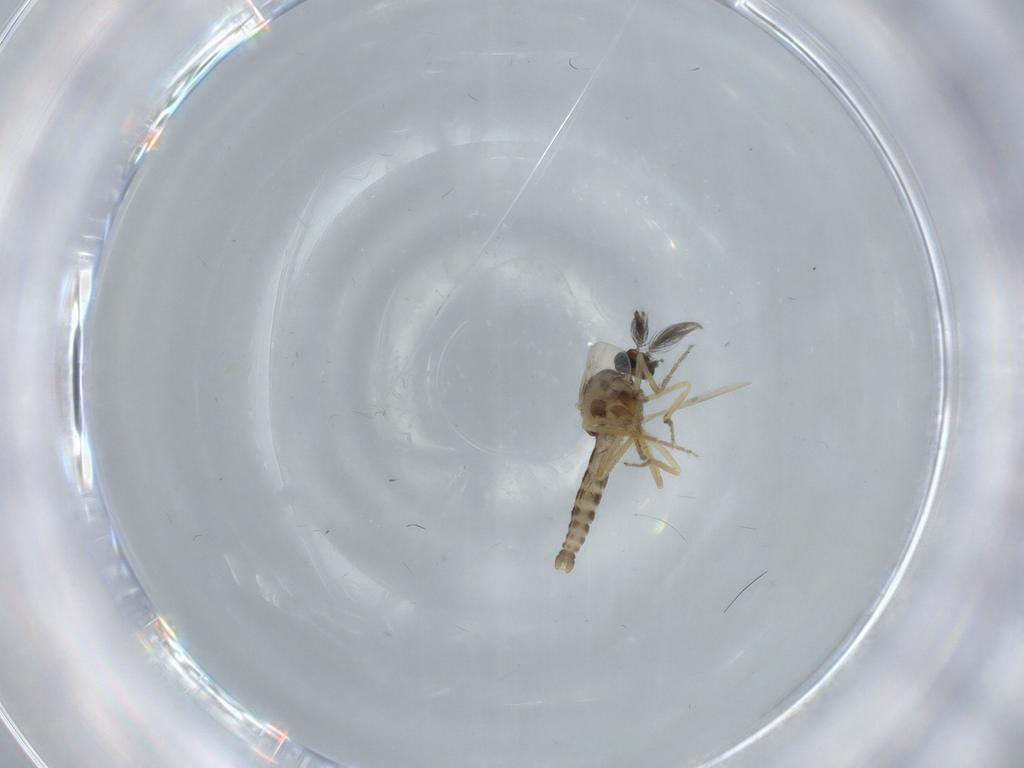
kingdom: Animalia
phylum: Arthropoda
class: Insecta
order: Diptera
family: Ceratopogonidae
